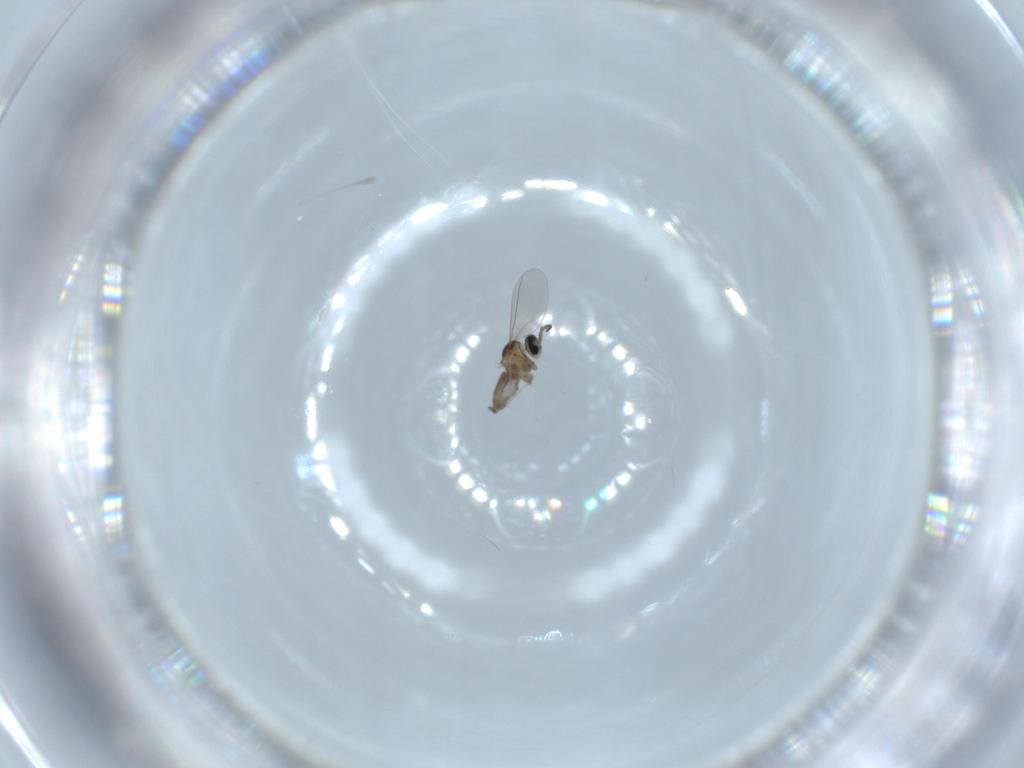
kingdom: Animalia
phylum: Arthropoda
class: Insecta
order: Diptera
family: Cecidomyiidae
